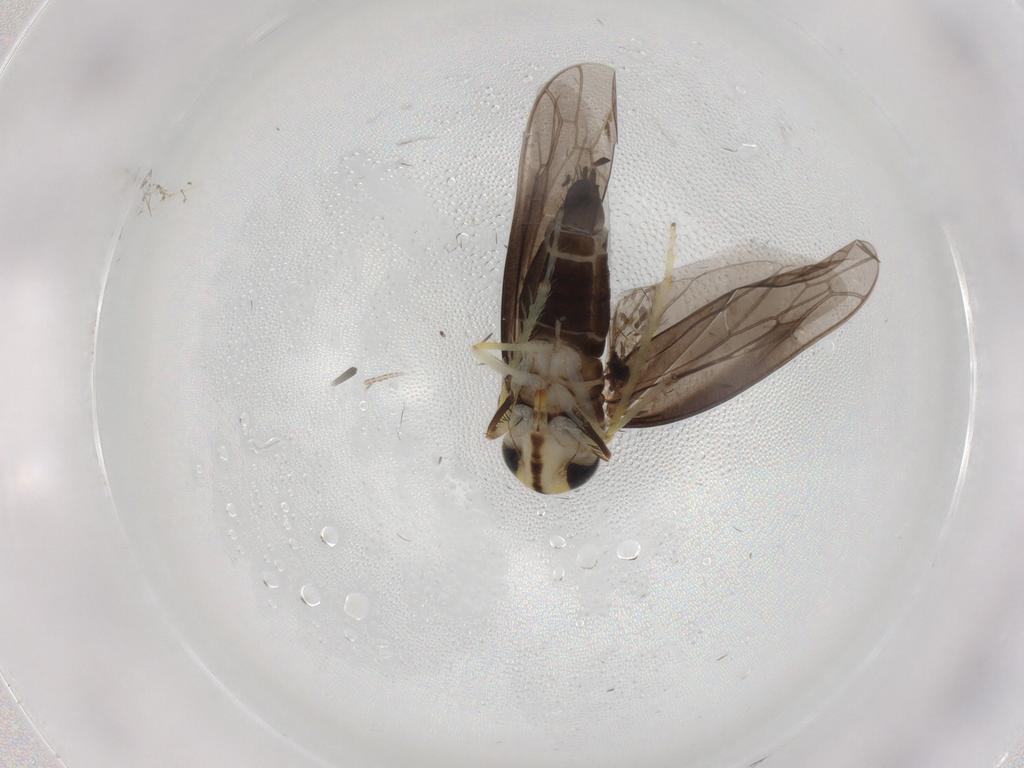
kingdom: Animalia
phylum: Arthropoda
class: Insecta
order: Hemiptera
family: Cicadellidae
